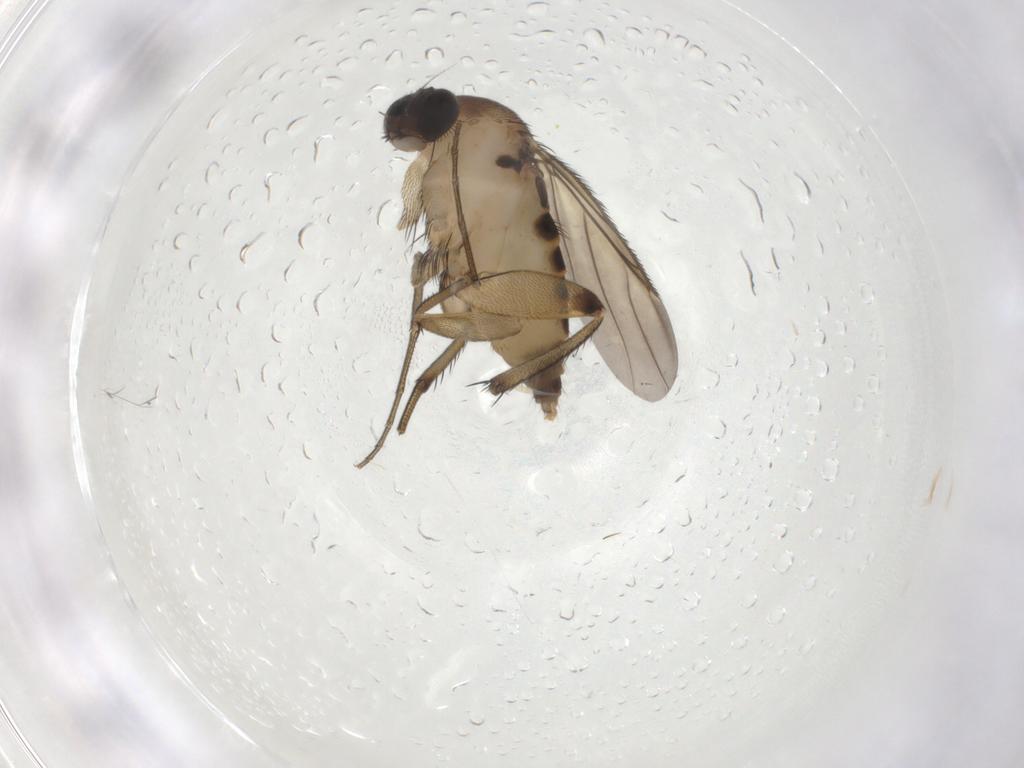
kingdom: Animalia
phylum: Arthropoda
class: Insecta
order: Diptera
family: Phoridae
